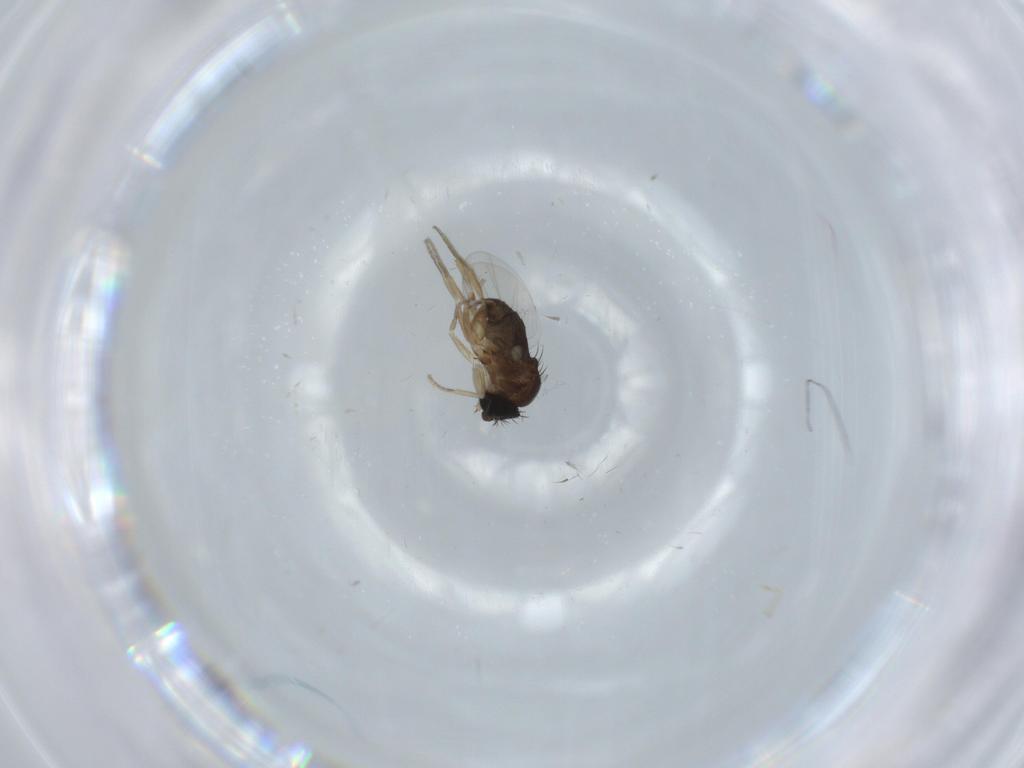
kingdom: Animalia
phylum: Arthropoda
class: Insecta
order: Diptera
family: Phoridae
